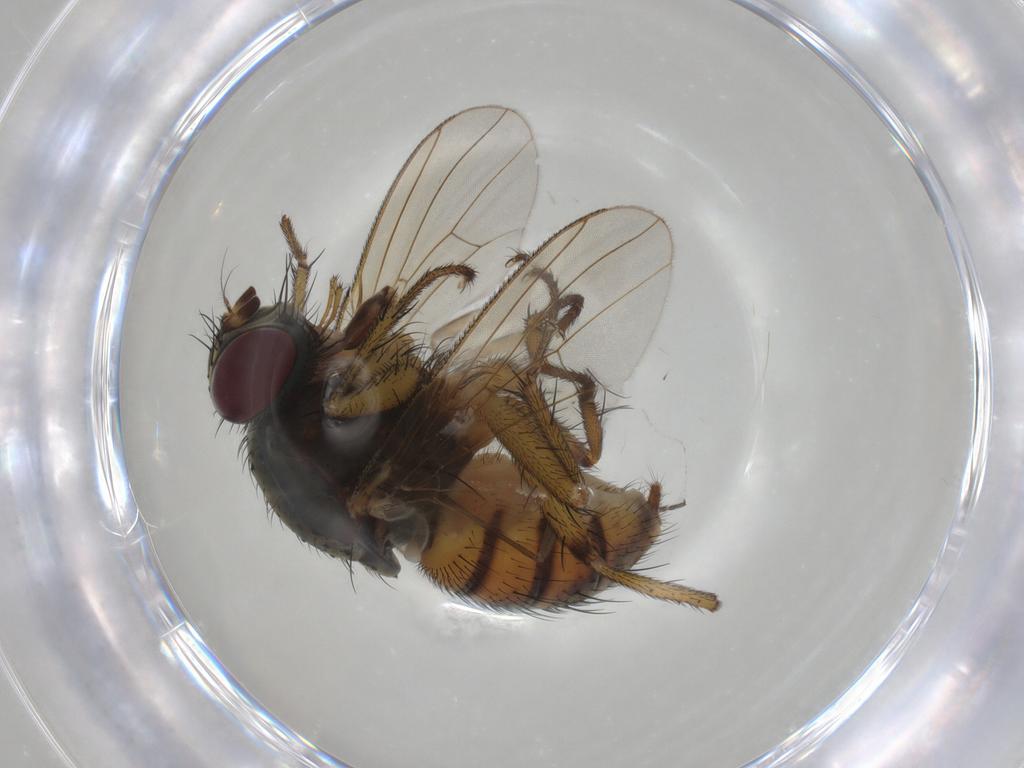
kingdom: Animalia
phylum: Arthropoda
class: Insecta
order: Diptera
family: Muscidae
